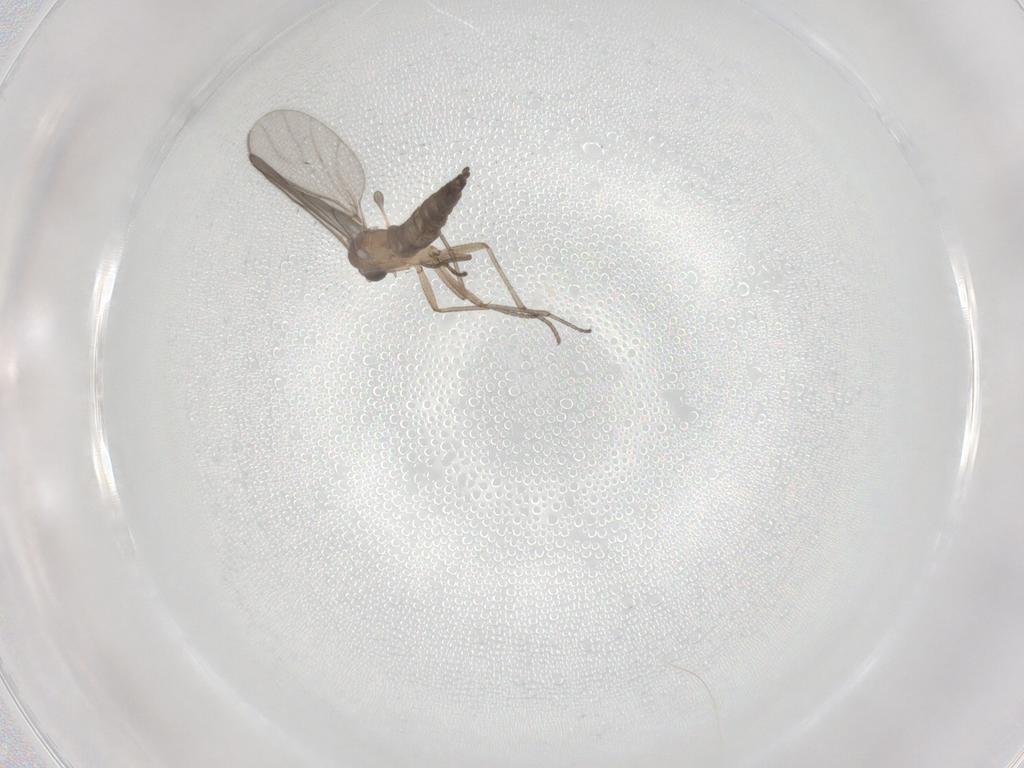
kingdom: Animalia
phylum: Arthropoda
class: Insecta
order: Diptera
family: Sciaridae
